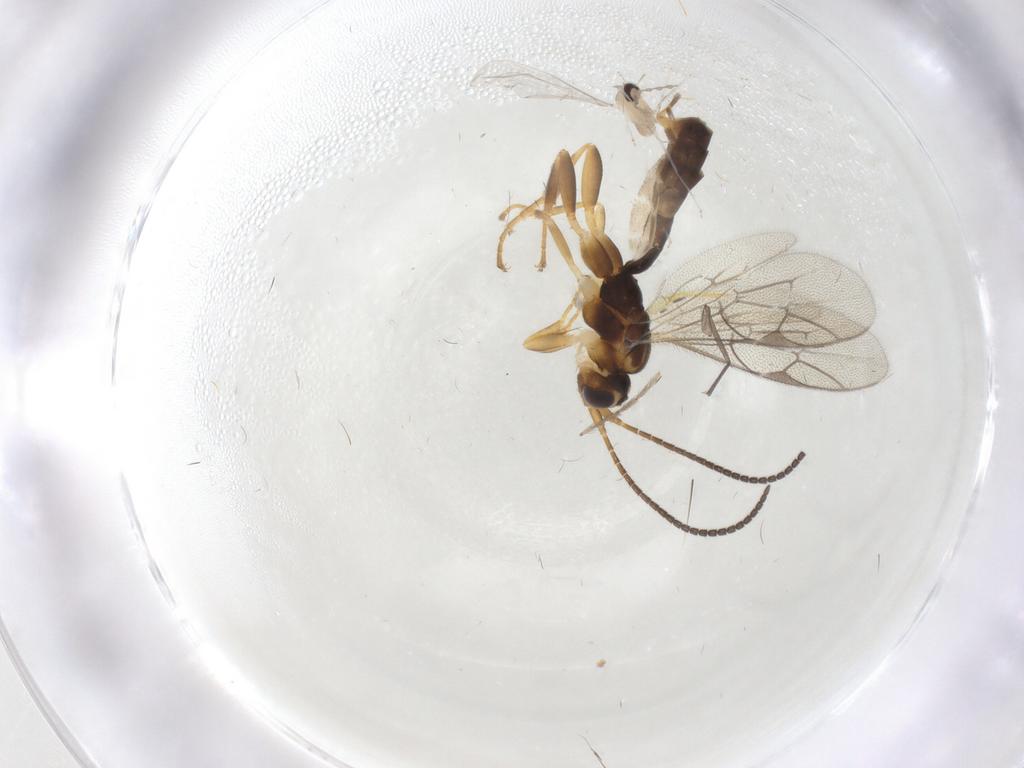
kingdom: Animalia
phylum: Arthropoda
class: Insecta
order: Diptera
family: Cecidomyiidae
